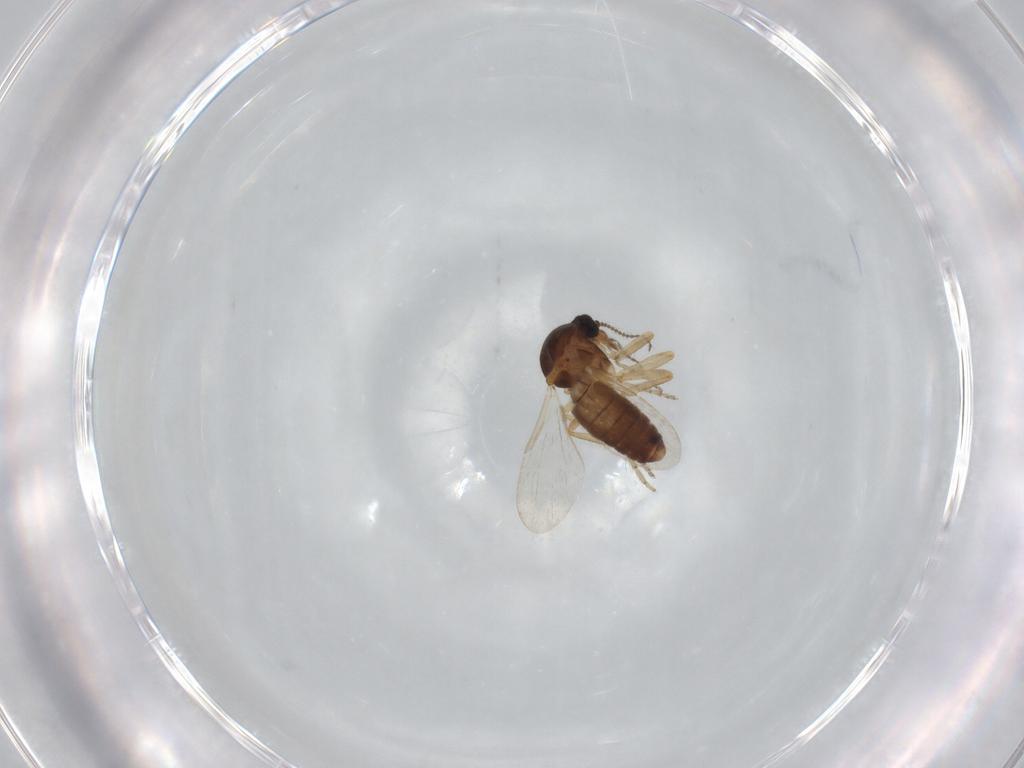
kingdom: Animalia
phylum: Arthropoda
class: Insecta
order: Diptera
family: Ceratopogonidae
